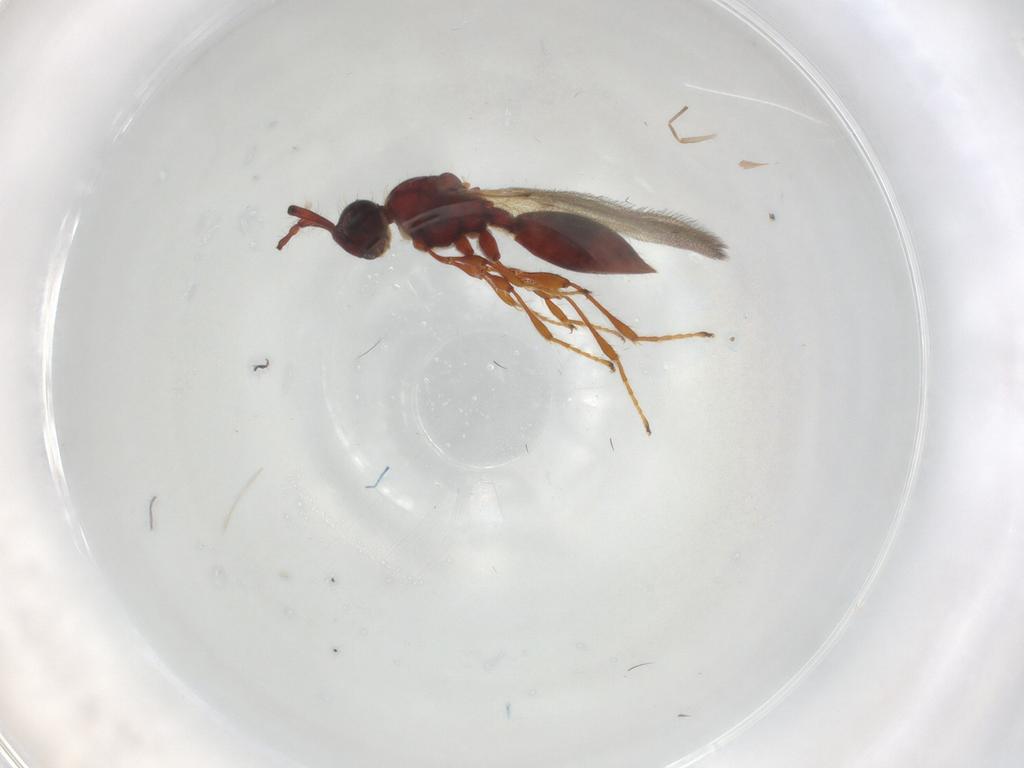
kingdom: Animalia
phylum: Arthropoda
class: Insecta
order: Hymenoptera
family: Diapriidae
